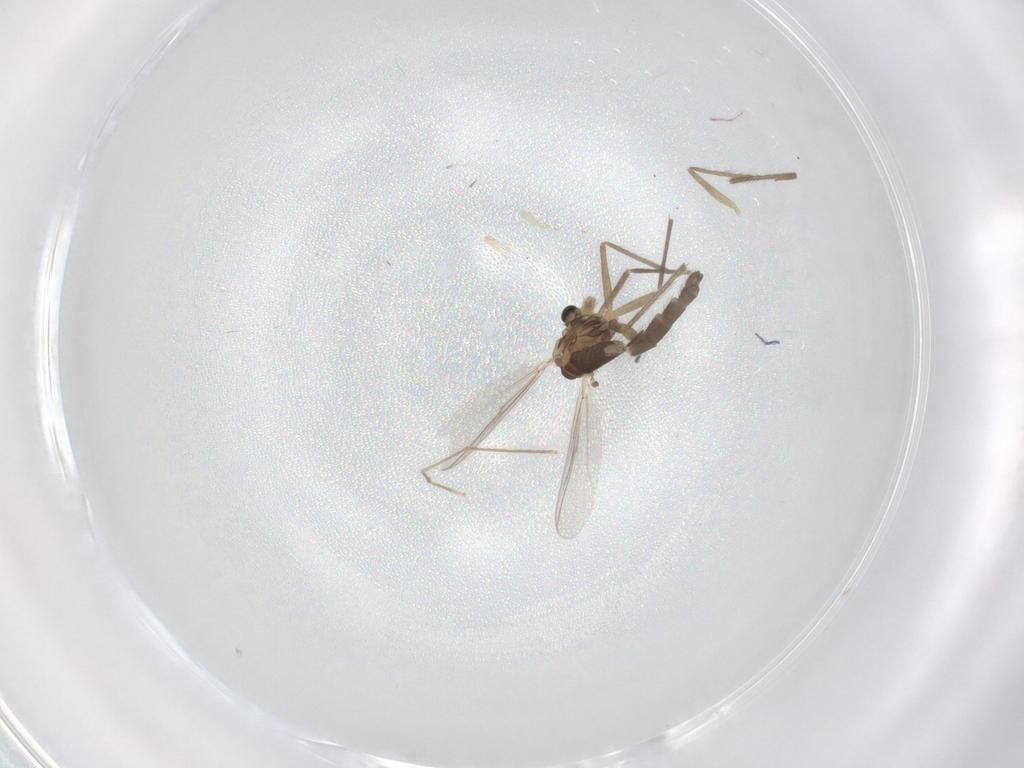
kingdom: Animalia
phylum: Arthropoda
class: Insecta
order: Diptera
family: Chironomidae
